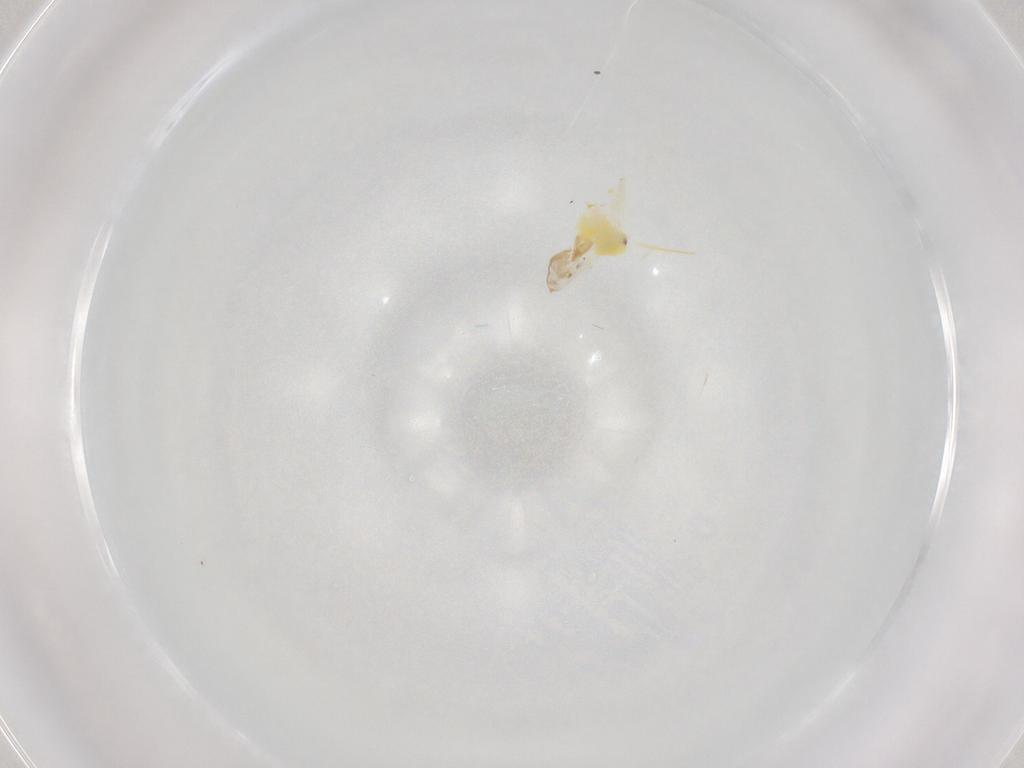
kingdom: Animalia
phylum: Arthropoda
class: Insecta
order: Hemiptera
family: Aleyrodidae
